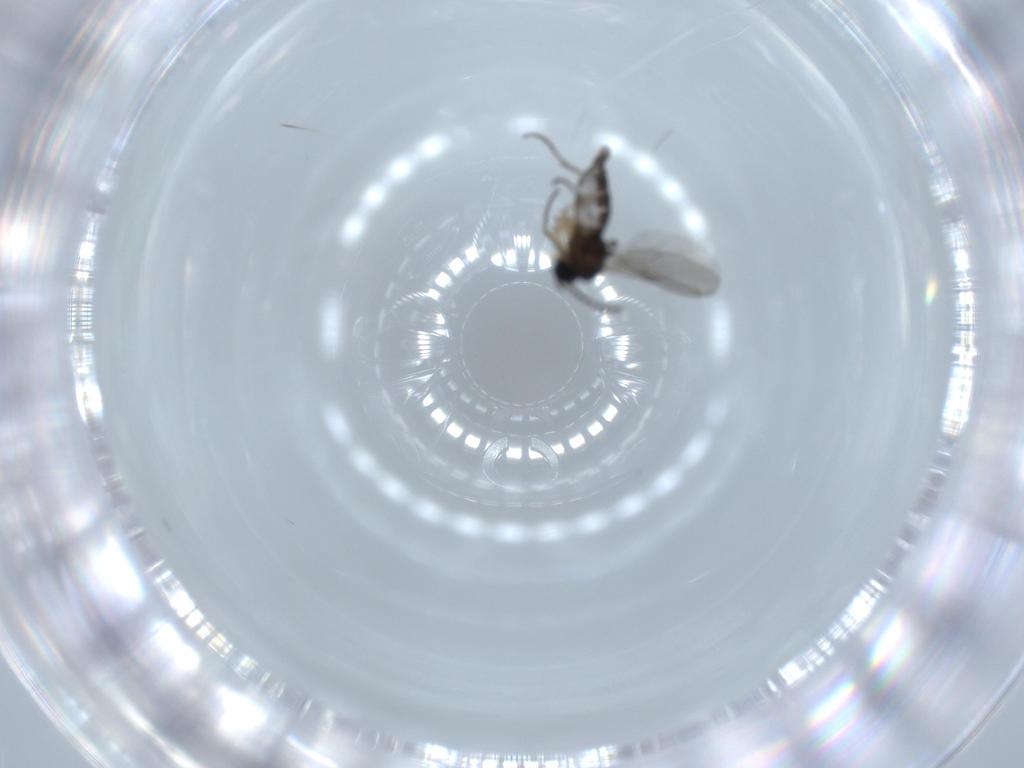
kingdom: Animalia
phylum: Arthropoda
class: Insecta
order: Diptera
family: Sciaridae
